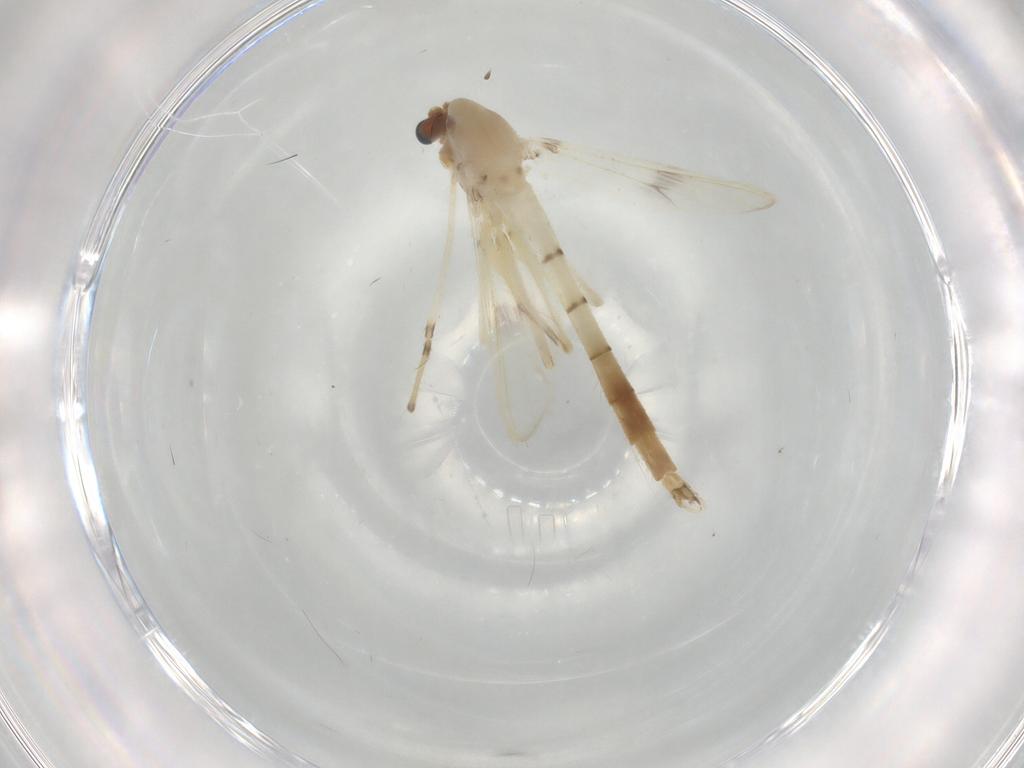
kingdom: Animalia
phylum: Arthropoda
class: Insecta
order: Diptera
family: Chironomidae
